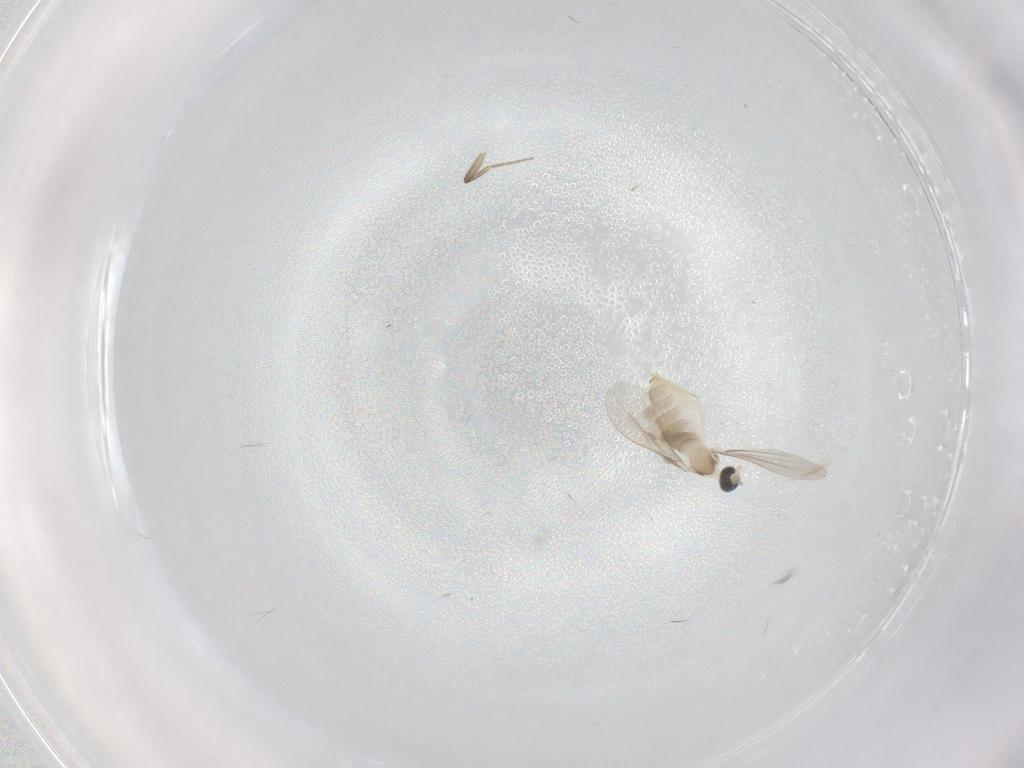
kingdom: Animalia
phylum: Arthropoda
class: Insecta
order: Diptera
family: Cecidomyiidae
